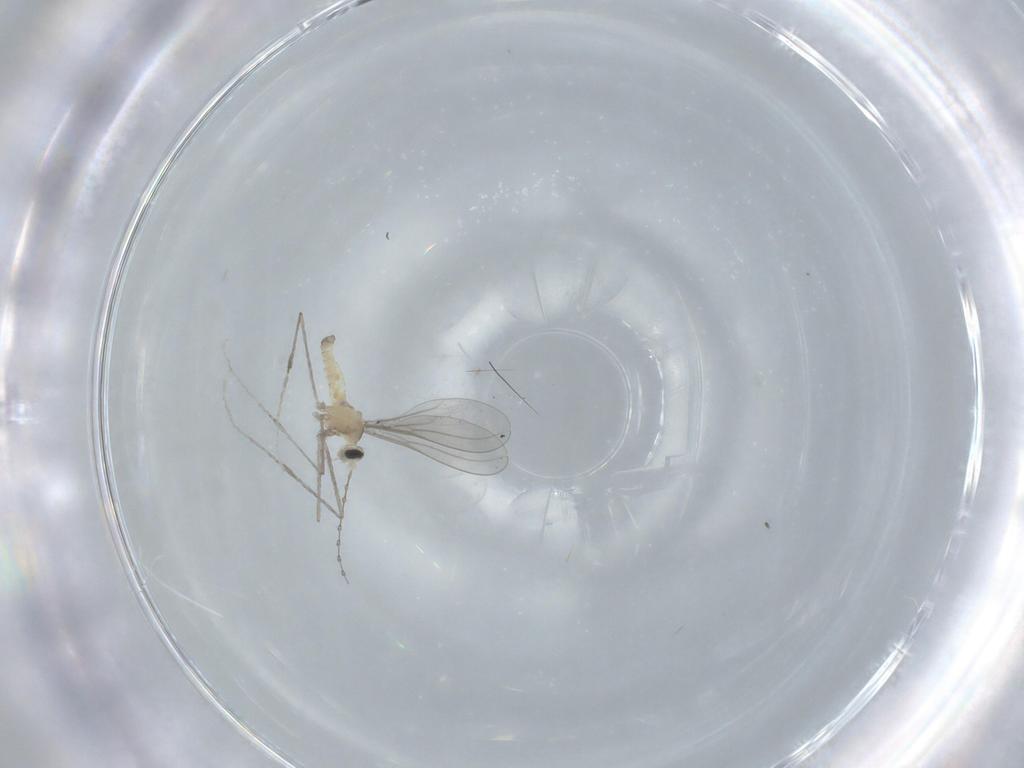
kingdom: Animalia
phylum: Arthropoda
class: Insecta
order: Diptera
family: Cecidomyiidae
